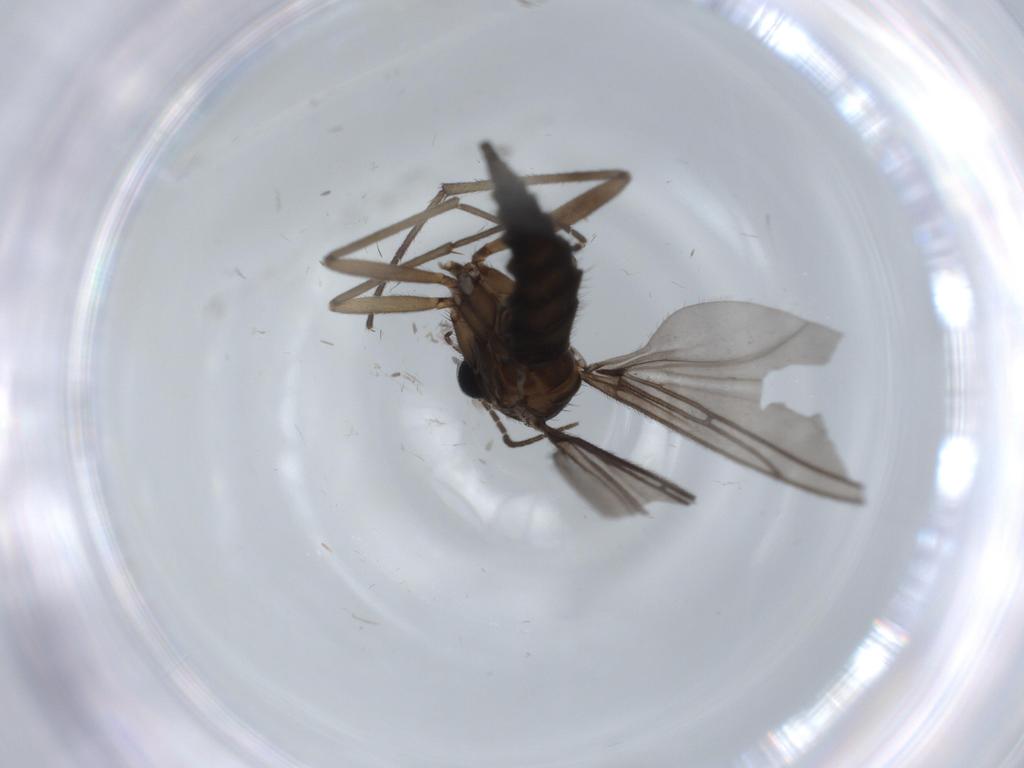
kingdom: Animalia
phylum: Arthropoda
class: Insecta
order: Diptera
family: Sciaridae
